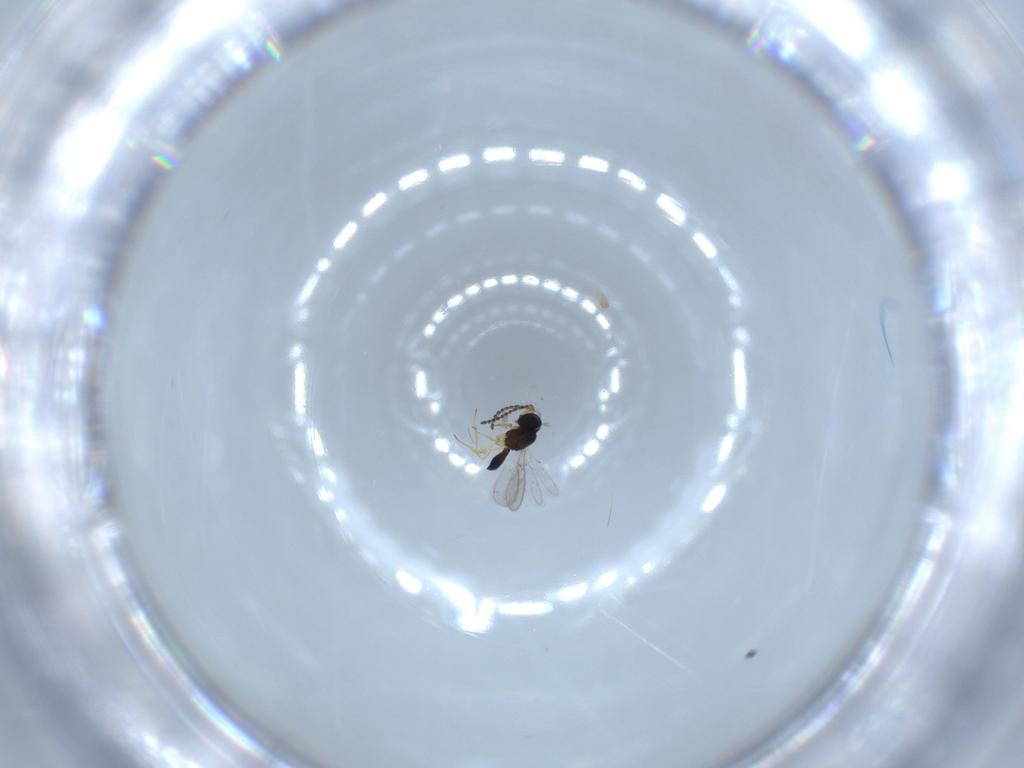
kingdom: Animalia
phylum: Arthropoda
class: Insecta
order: Hymenoptera
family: Scelionidae
